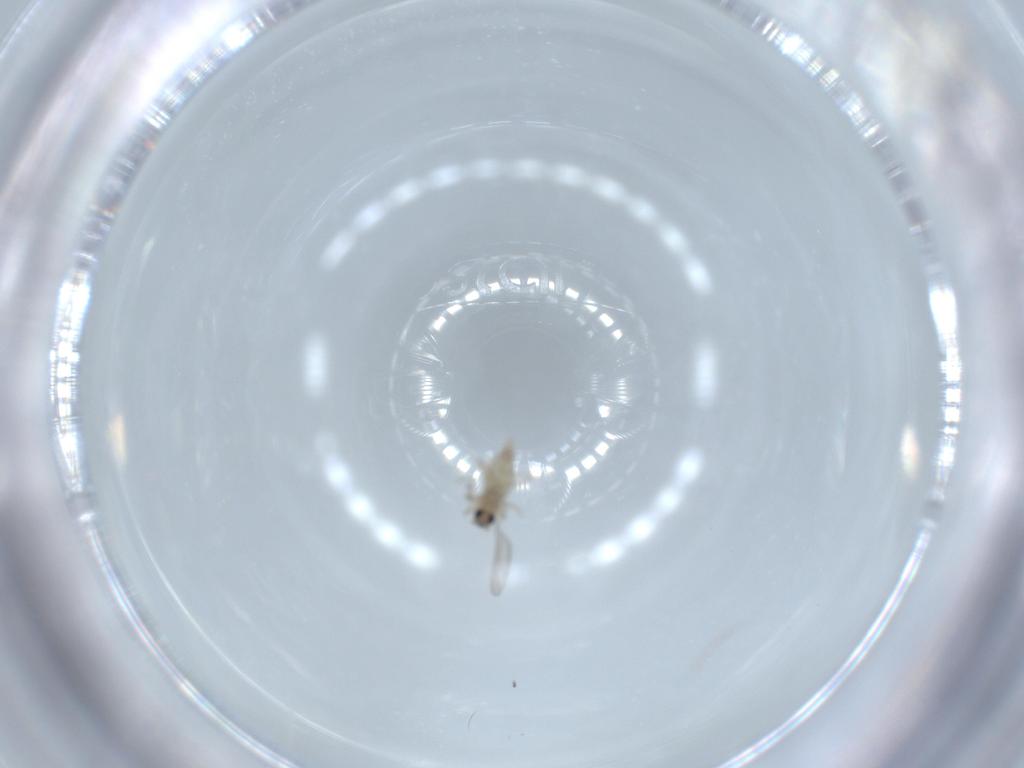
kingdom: Animalia
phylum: Arthropoda
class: Insecta
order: Diptera
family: Cecidomyiidae
